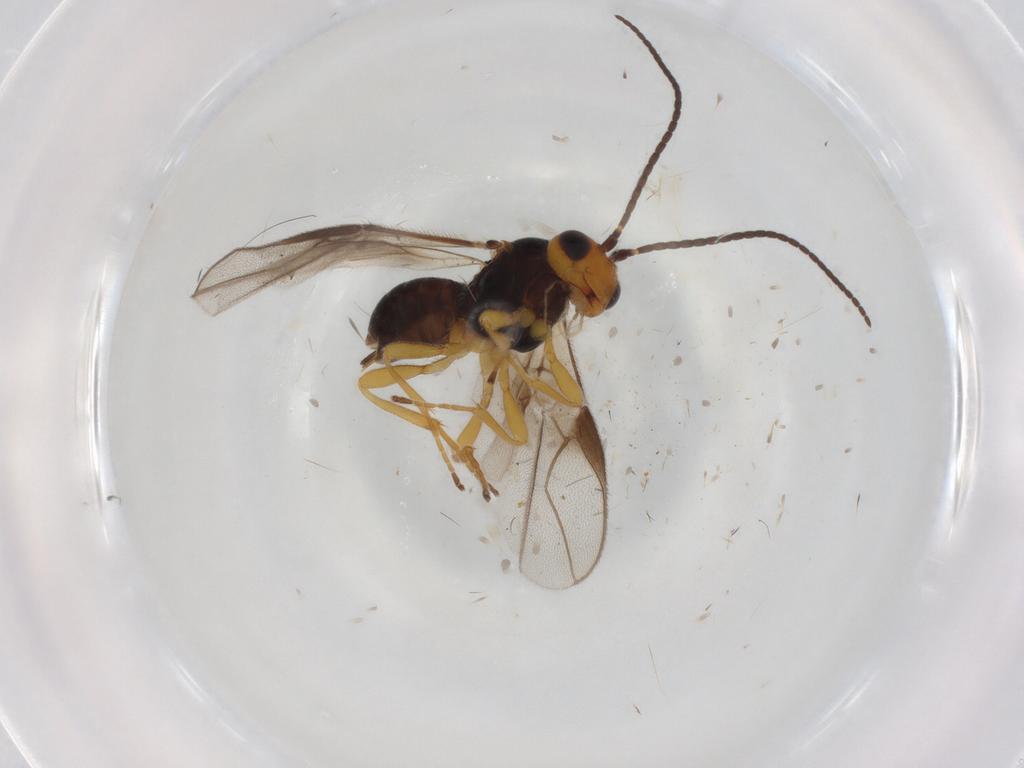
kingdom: Animalia
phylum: Arthropoda
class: Insecta
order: Hymenoptera
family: Braconidae
